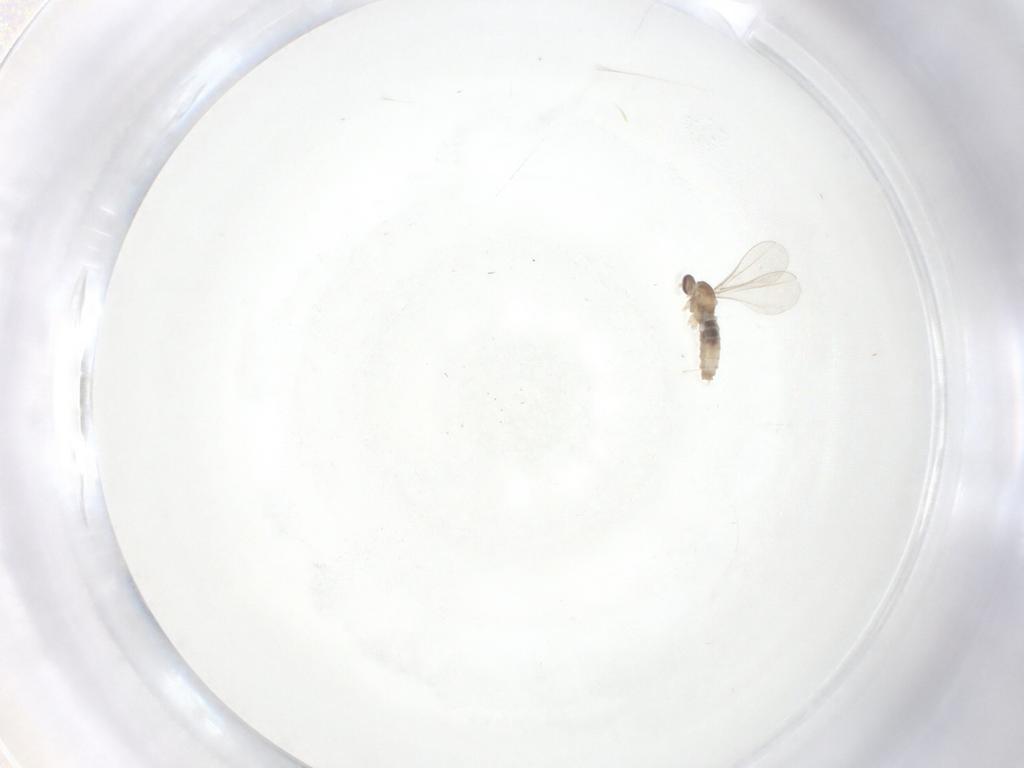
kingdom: Animalia
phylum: Arthropoda
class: Insecta
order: Diptera
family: Cecidomyiidae
